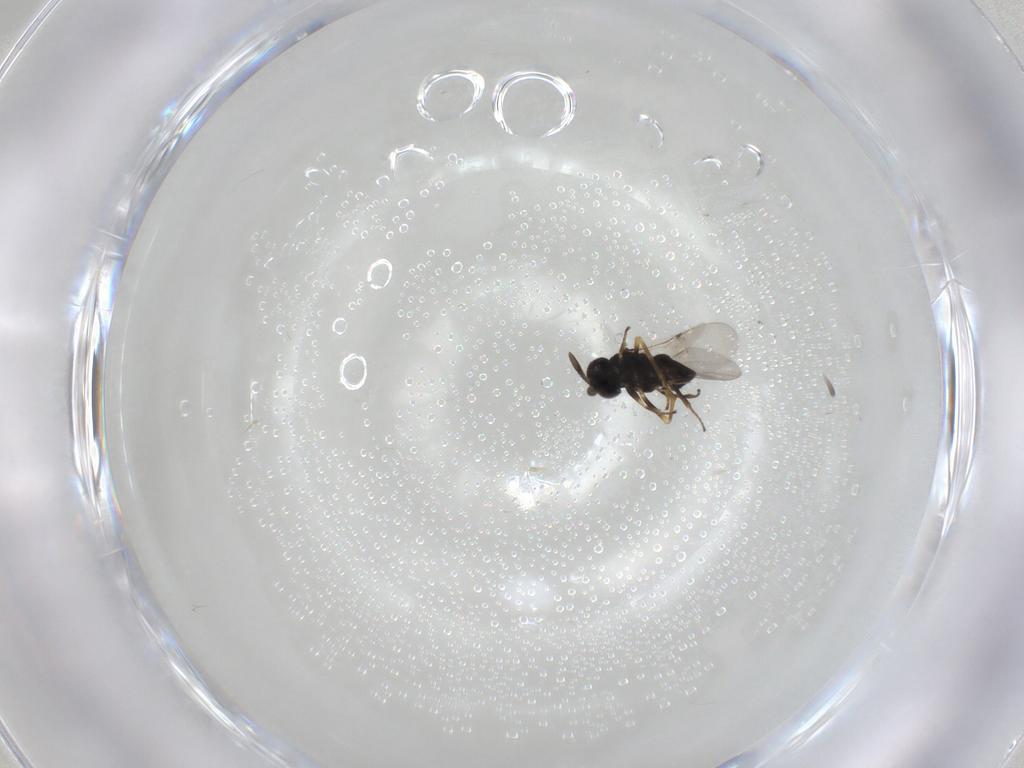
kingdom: Animalia
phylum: Arthropoda
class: Insecta
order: Hymenoptera
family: Encyrtidae
